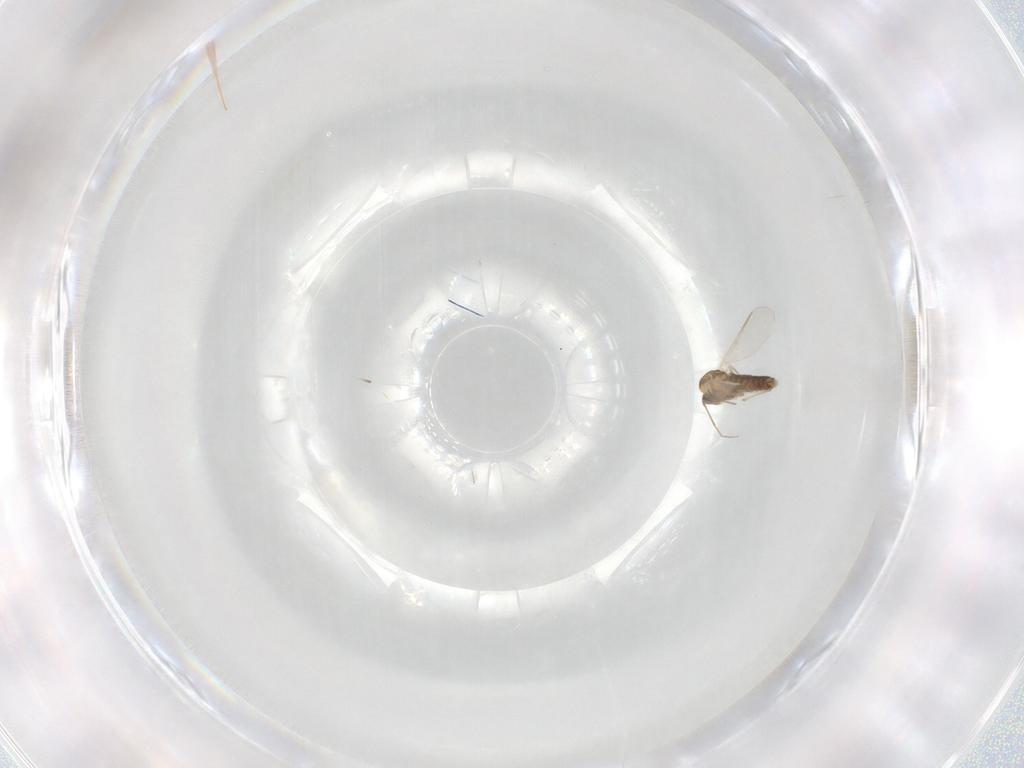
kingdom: Animalia
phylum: Arthropoda
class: Insecta
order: Diptera
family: Chironomidae
